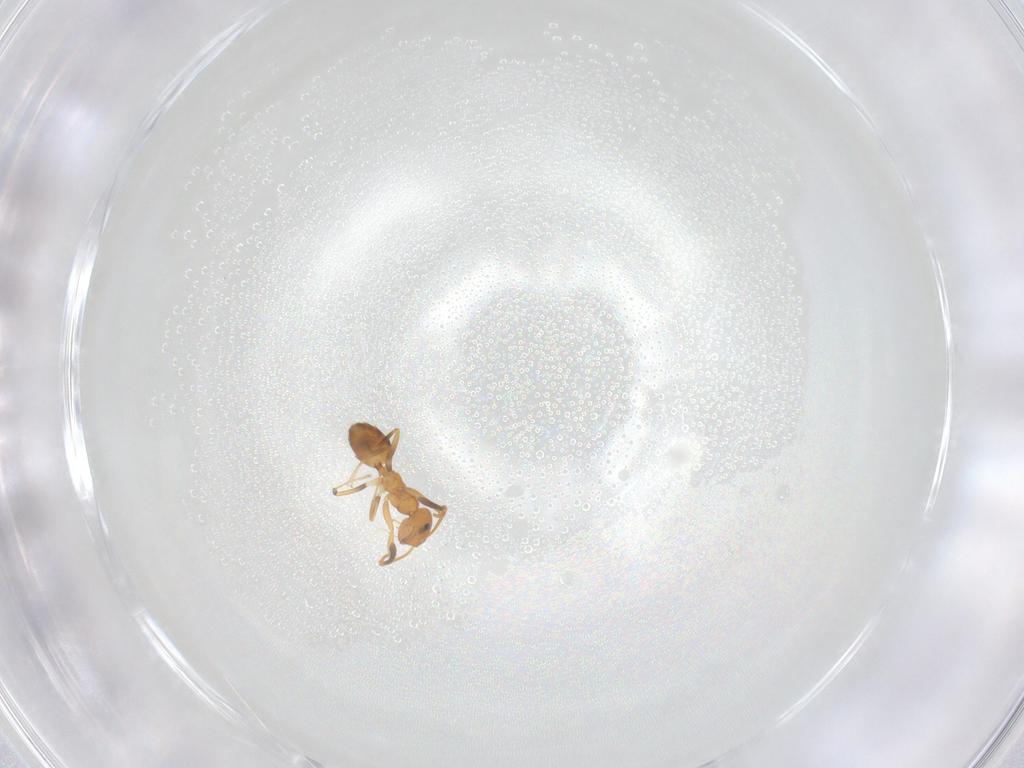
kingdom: Animalia
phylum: Arthropoda
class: Insecta
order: Hymenoptera
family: Formicidae
